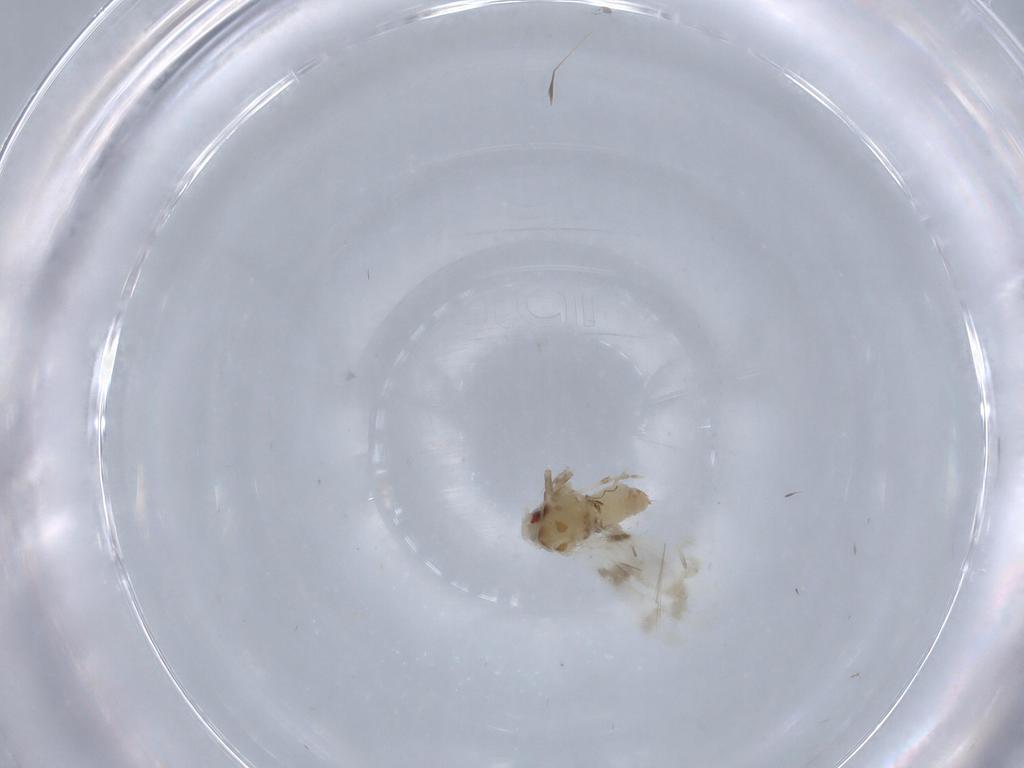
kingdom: Animalia
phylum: Arthropoda
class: Insecta
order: Hemiptera
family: Aleyrodidae
